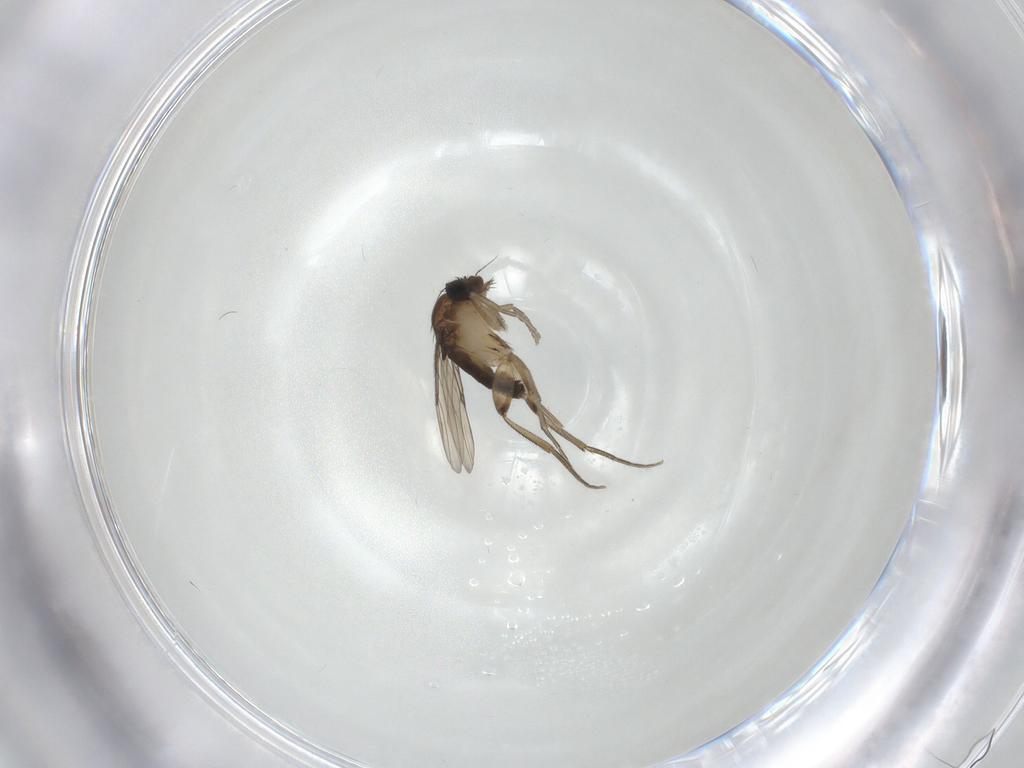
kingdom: Animalia
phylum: Arthropoda
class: Insecta
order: Diptera
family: Phoridae
